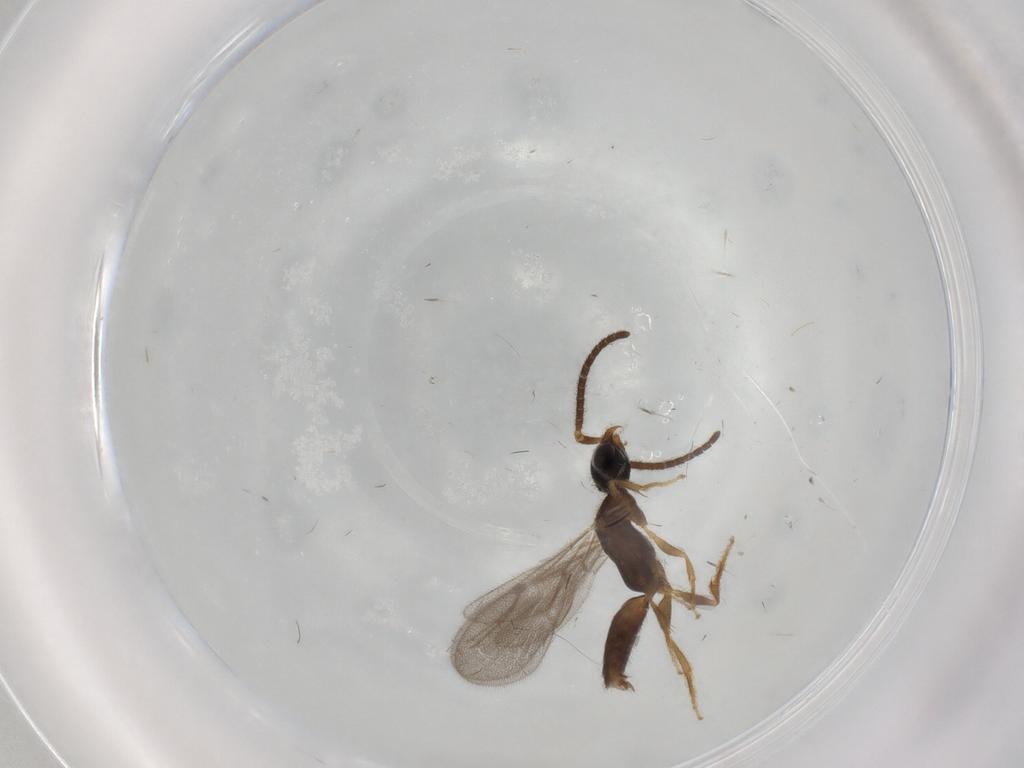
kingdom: Animalia
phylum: Arthropoda
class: Insecta
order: Hymenoptera
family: Bethylidae
